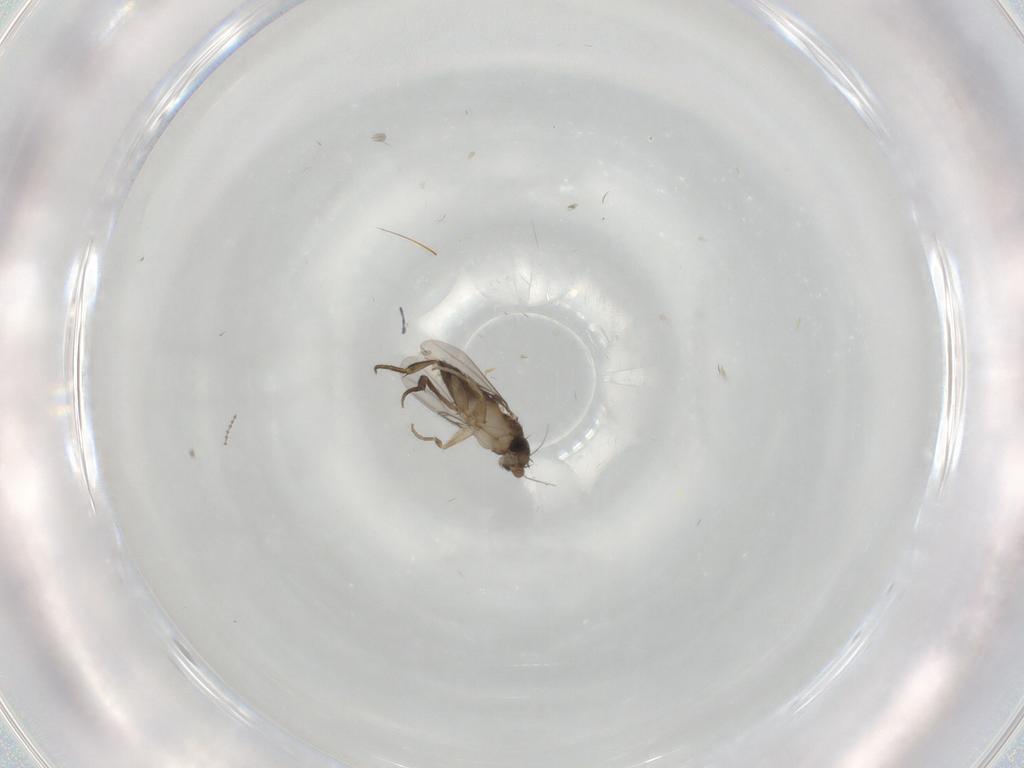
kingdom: Animalia
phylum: Arthropoda
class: Insecta
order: Diptera
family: Phoridae
